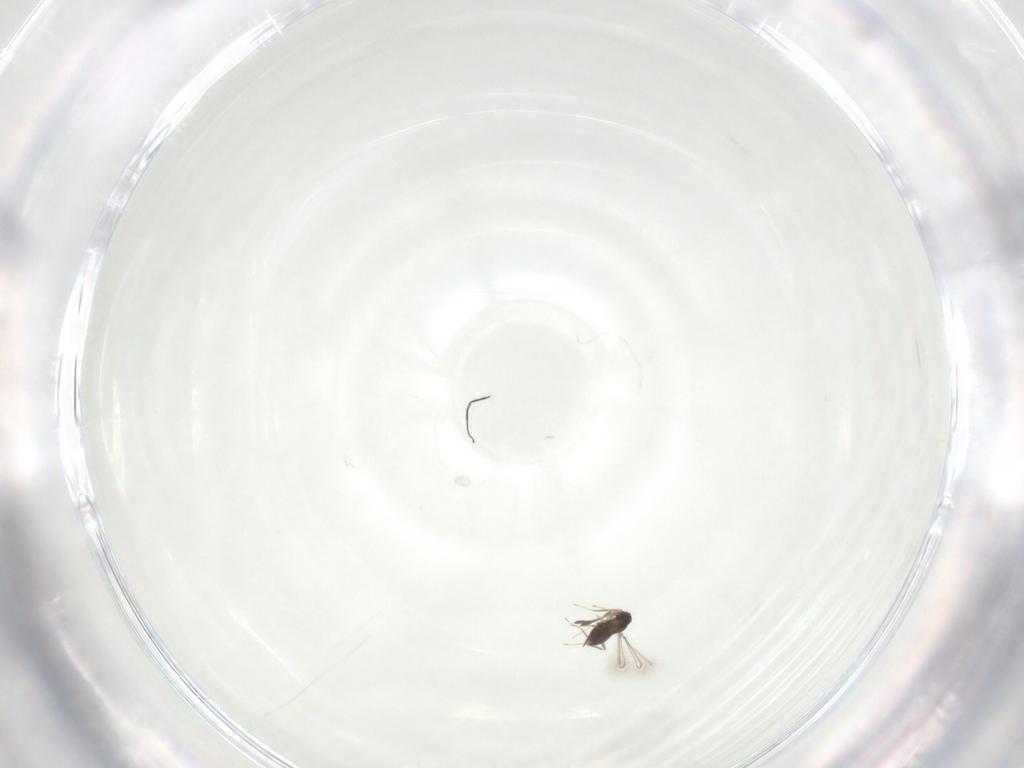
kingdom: Animalia
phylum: Arthropoda
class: Insecta
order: Hymenoptera
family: Mymaridae
